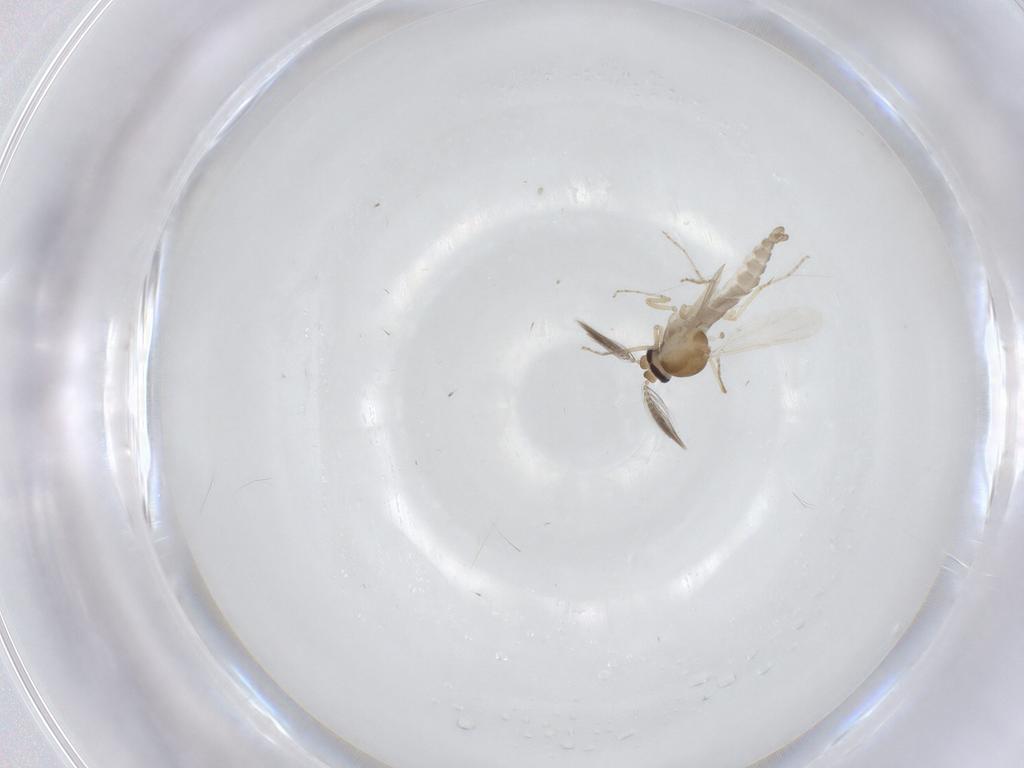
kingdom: Animalia
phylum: Arthropoda
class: Insecta
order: Diptera
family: Ceratopogonidae
